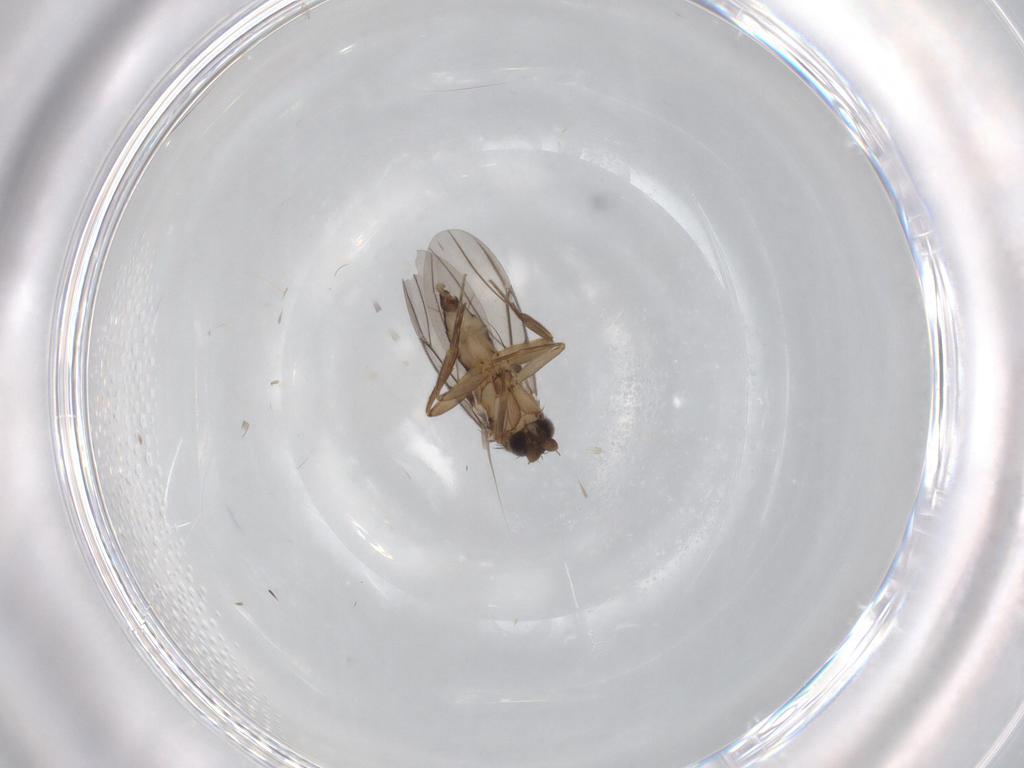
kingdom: Animalia
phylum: Arthropoda
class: Insecta
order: Diptera
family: Phoridae
